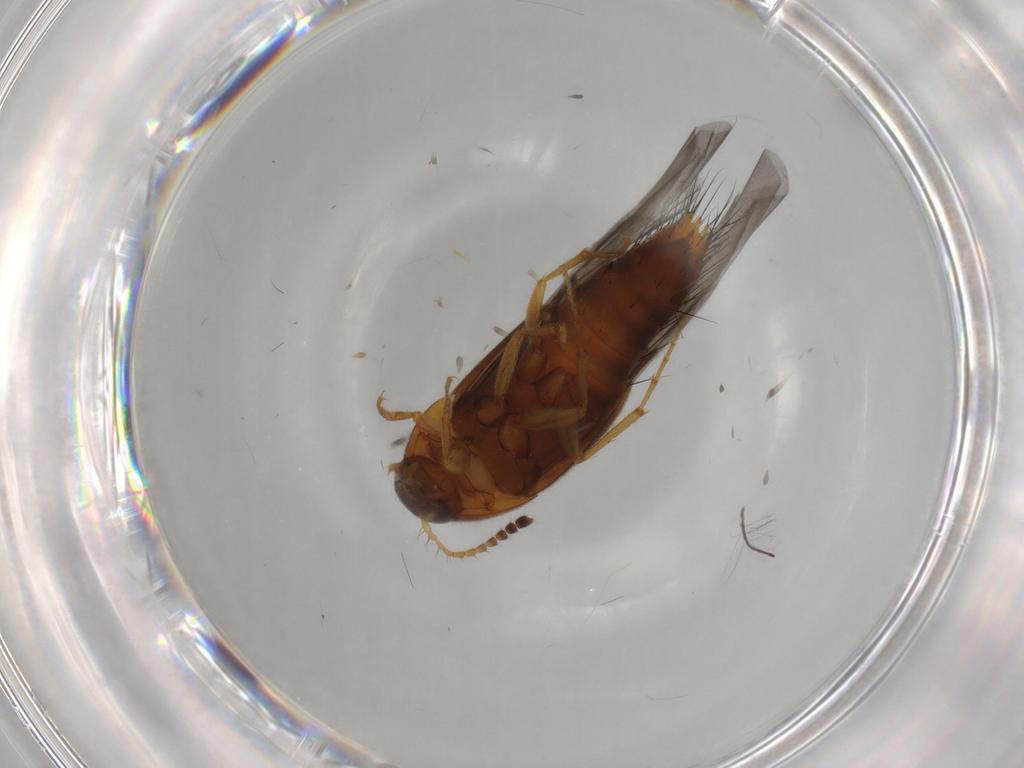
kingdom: Animalia
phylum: Arthropoda
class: Insecta
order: Coleoptera
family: Staphylinidae
